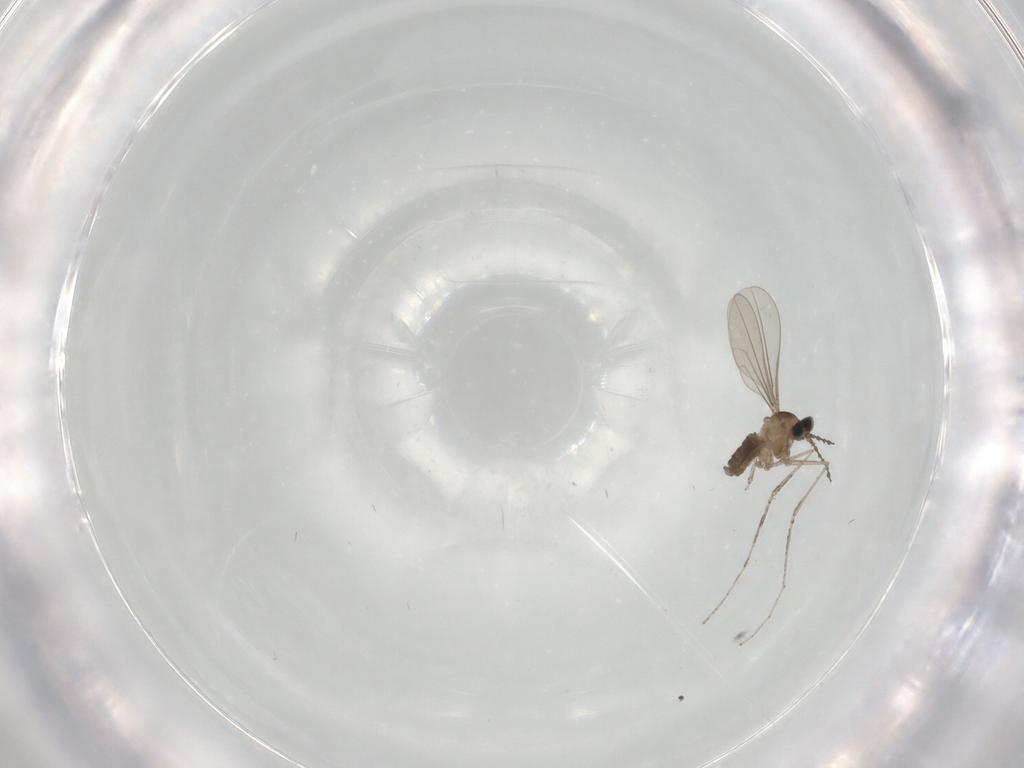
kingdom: Animalia
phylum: Arthropoda
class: Insecta
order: Diptera
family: Cecidomyiidae
